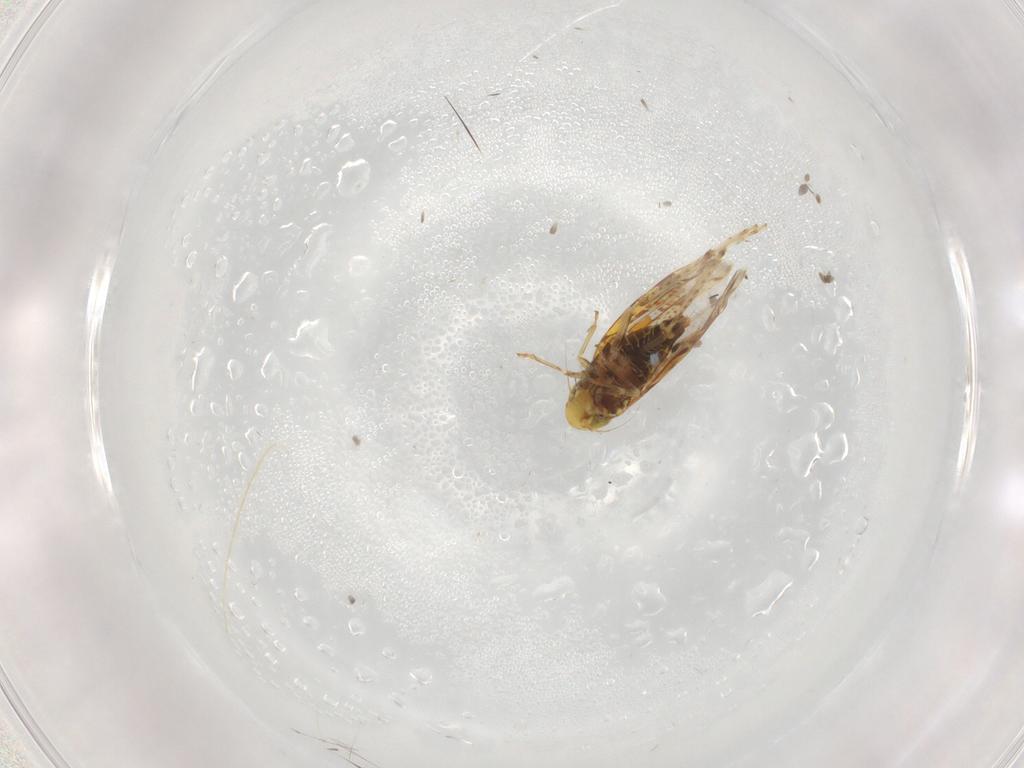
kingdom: Animalia
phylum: Arthropoda
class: Insecta
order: Hemiptera
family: Cicadellidae
